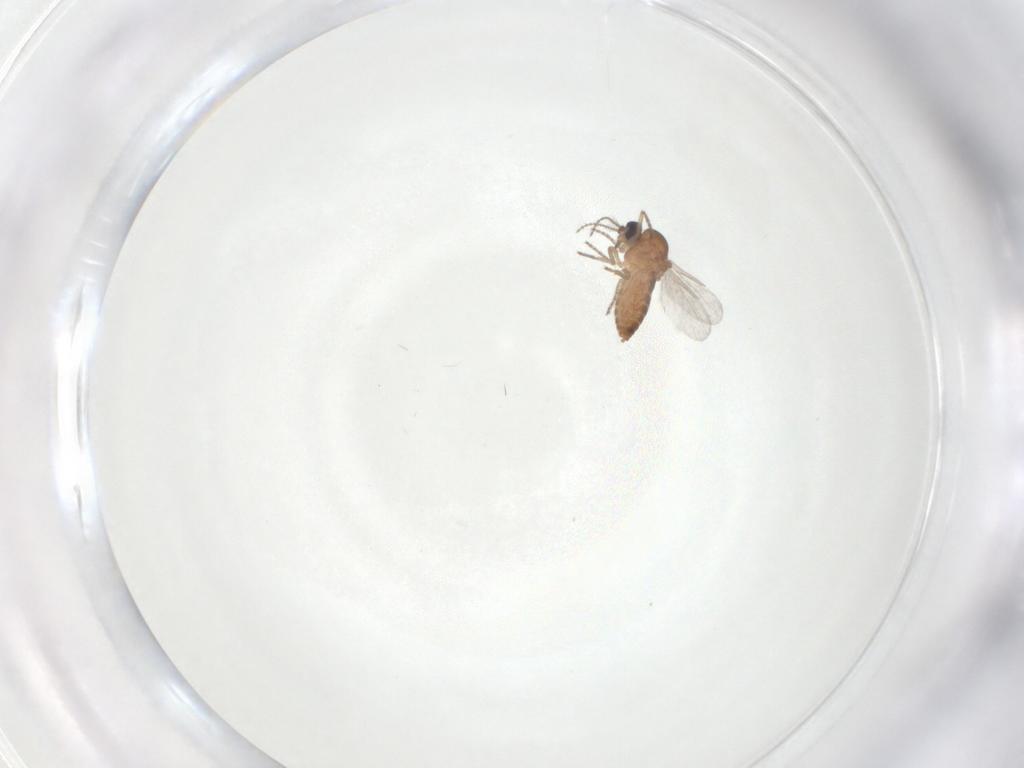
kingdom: Animalia
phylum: Arthropoda
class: Insecta
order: Diptera
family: Ceratopogonidae
